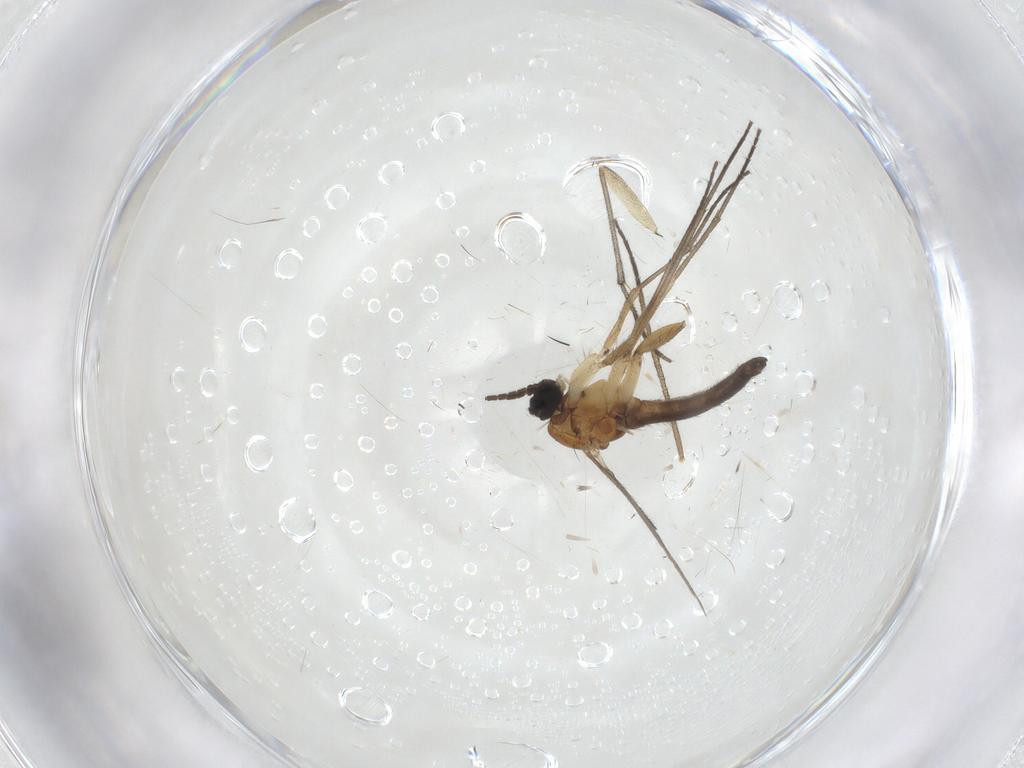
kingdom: Animalia
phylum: Arthropoda
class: Insecta
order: Diptera
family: Sciaridae
